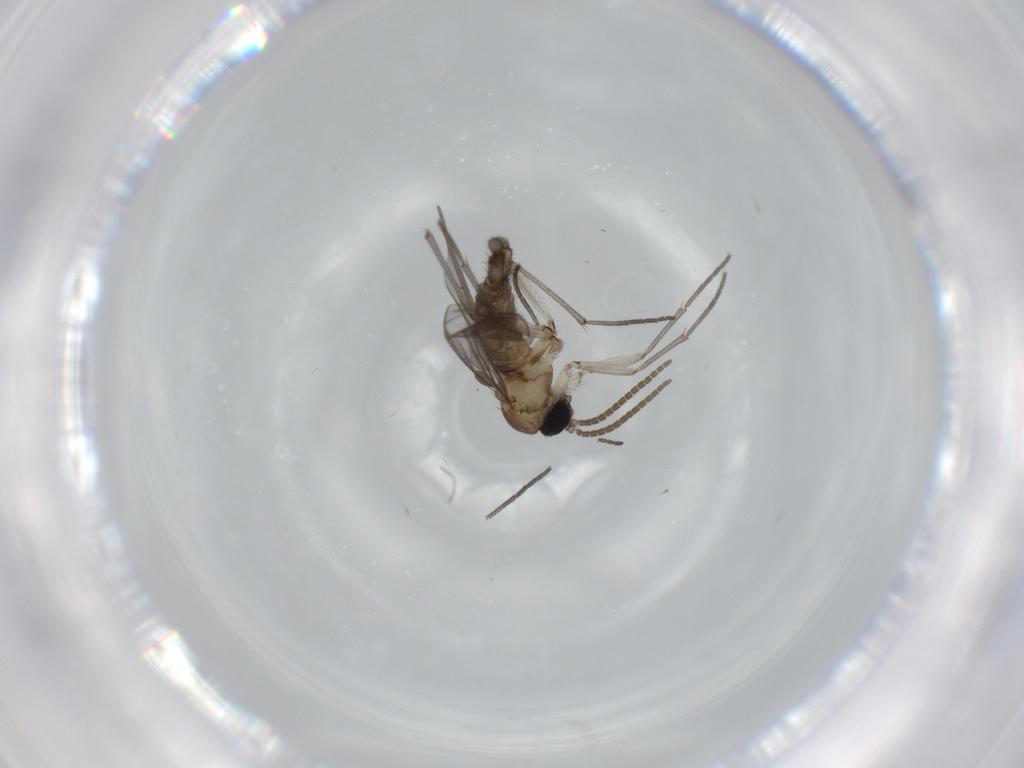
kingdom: Animalia
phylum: Arthropoda
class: Insecta
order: Diptera
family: Sciaridae
